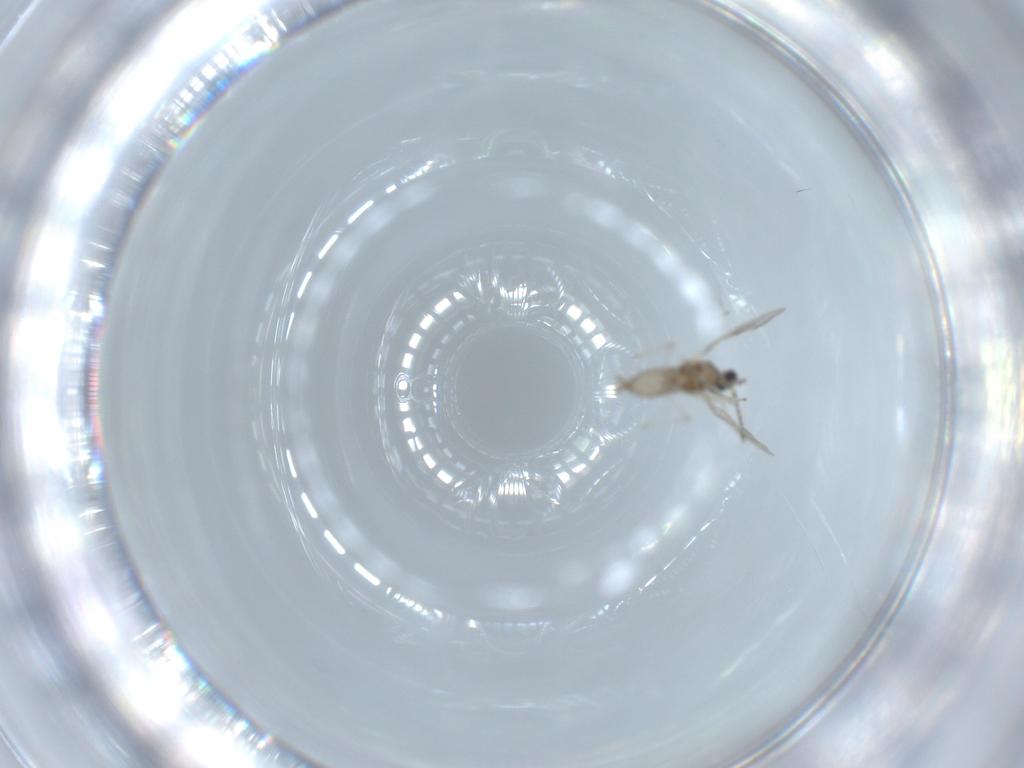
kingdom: Animalia
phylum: Arthropoda
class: Insecta
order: Diptera
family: Cecidomyiidae
